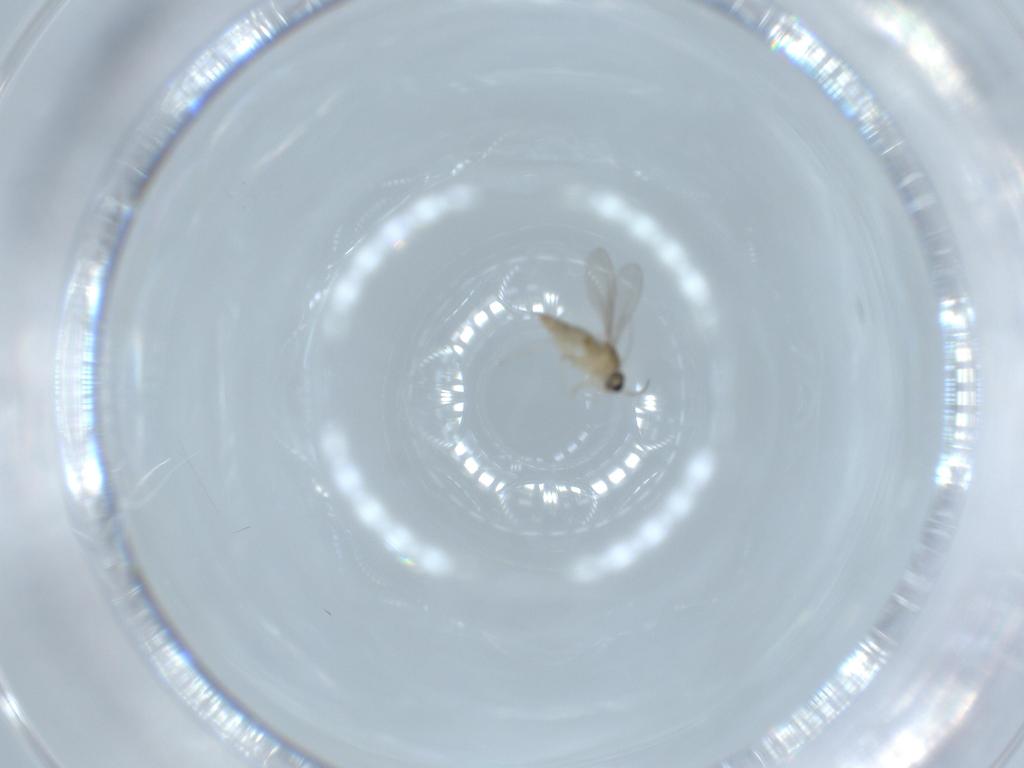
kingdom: Animalia
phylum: Arthropoda
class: Insecta
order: Diptera
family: Cecidomyiidae
